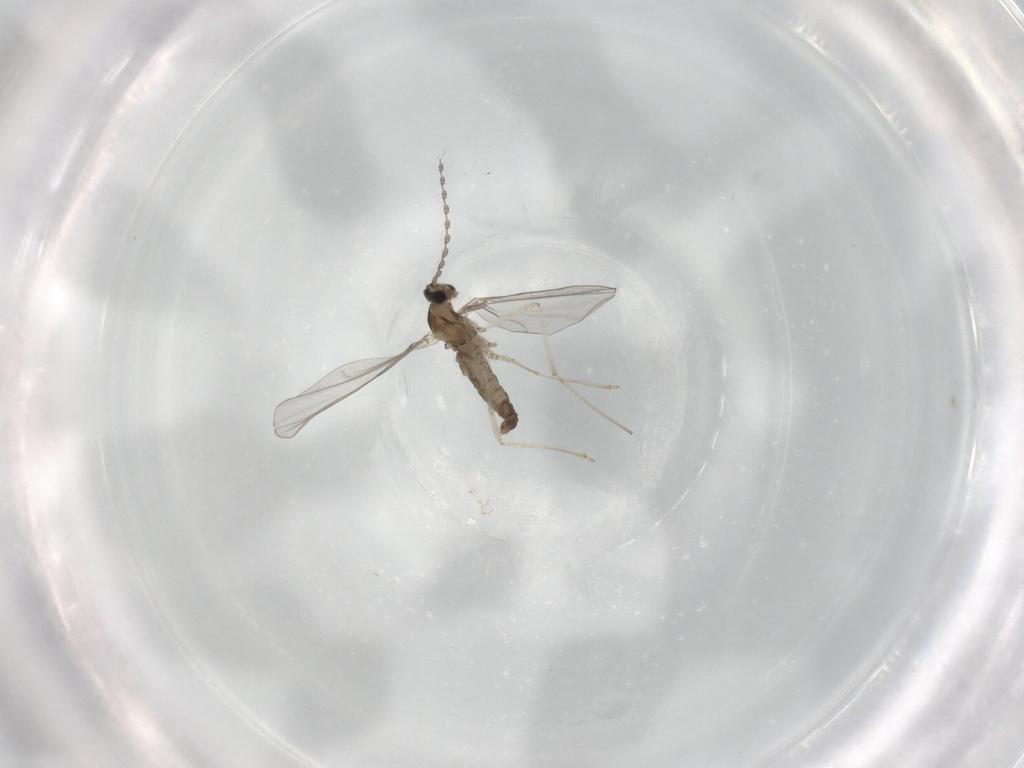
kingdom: Animalia
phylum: Arthropoda
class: Insecta
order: Diptera
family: Cecidomyiidae
